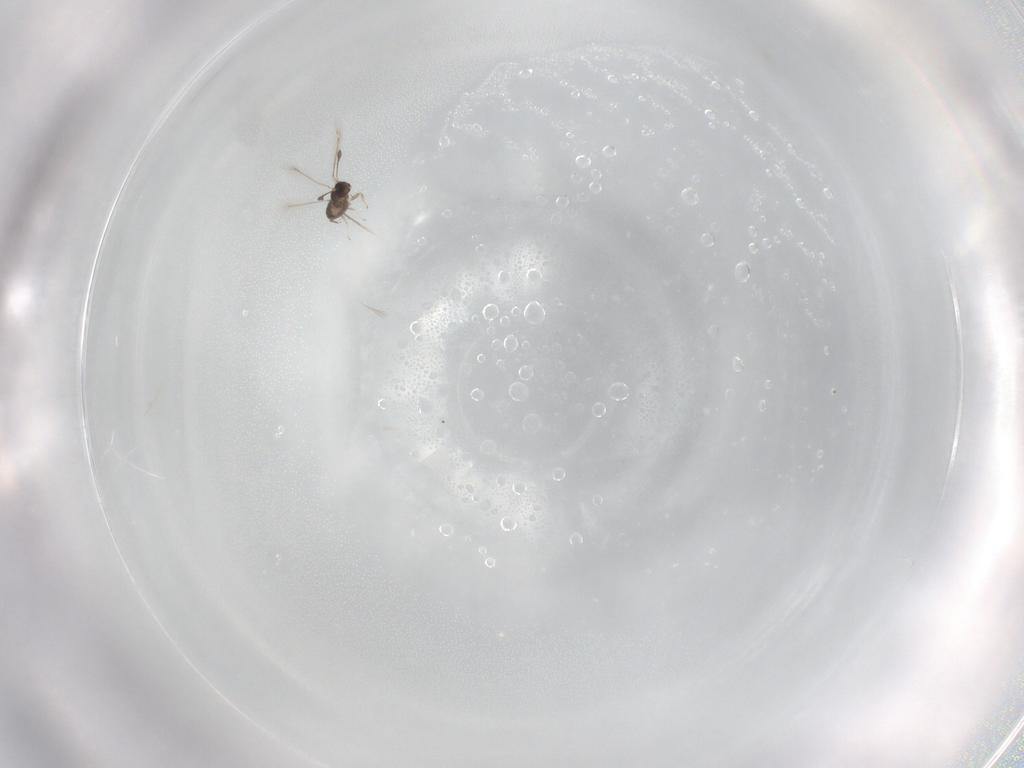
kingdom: Animalia
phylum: Arthropoda
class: Insecta
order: Hymenoptera
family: Mymaridae
